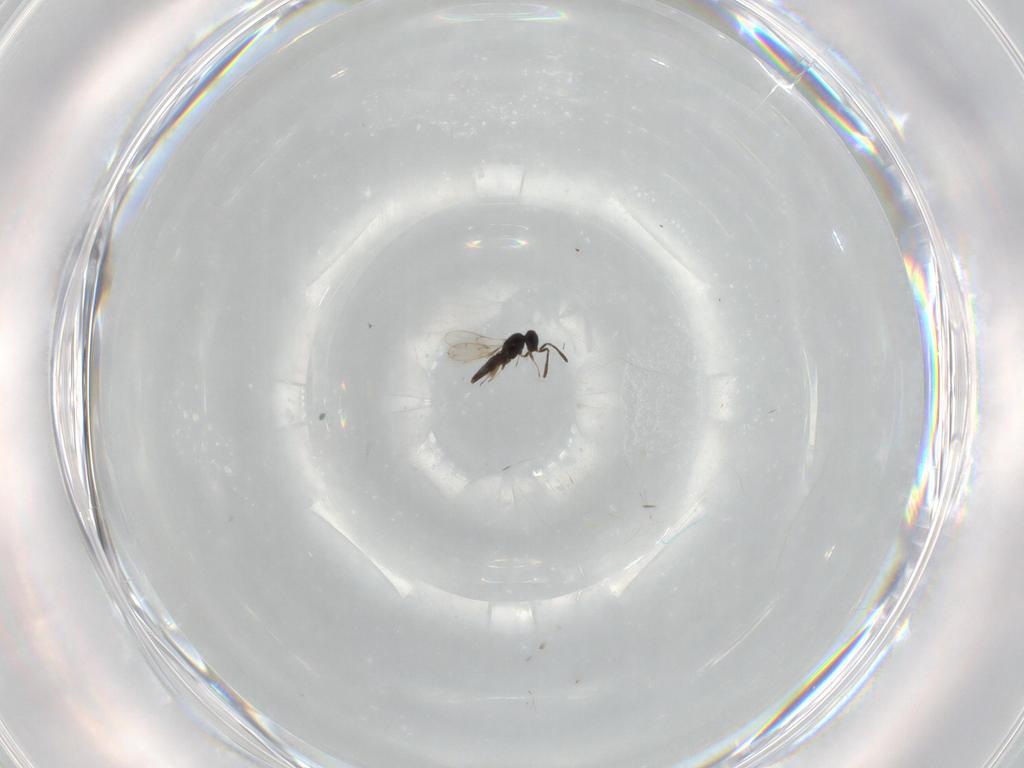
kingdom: Animalia
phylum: Arthropoda
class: Insecta
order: Hymenoptera
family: Scelionidae
